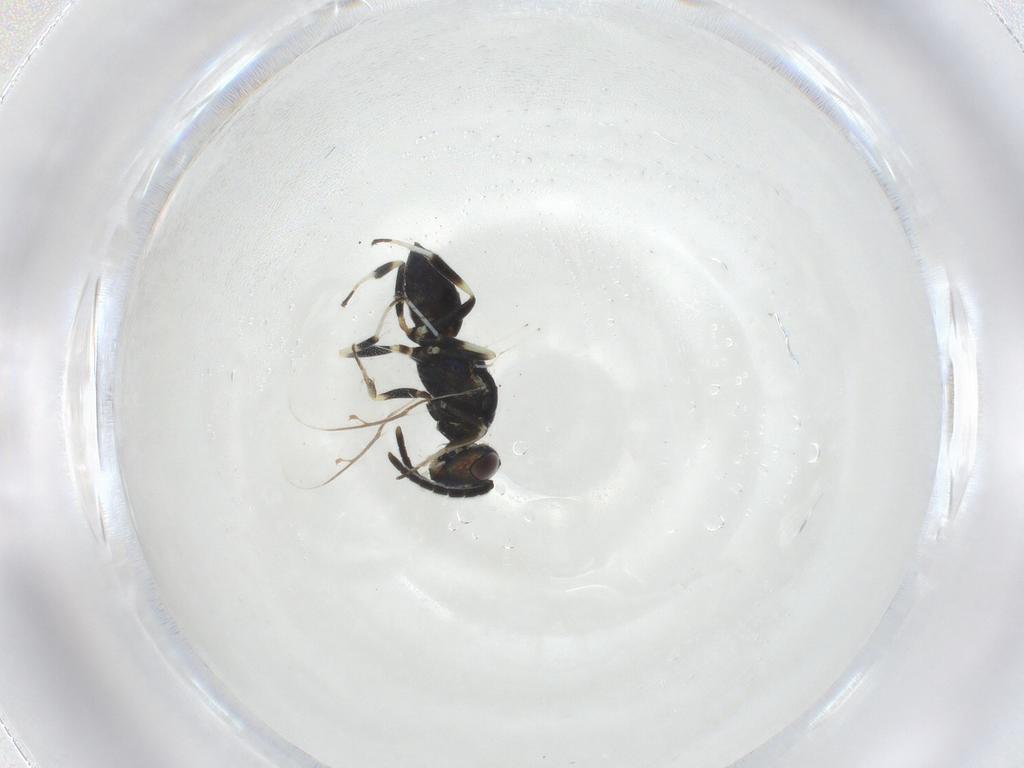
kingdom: Animalia
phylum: Arthropoda
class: Insecta
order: Hymenoptera
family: Eupelmidae
